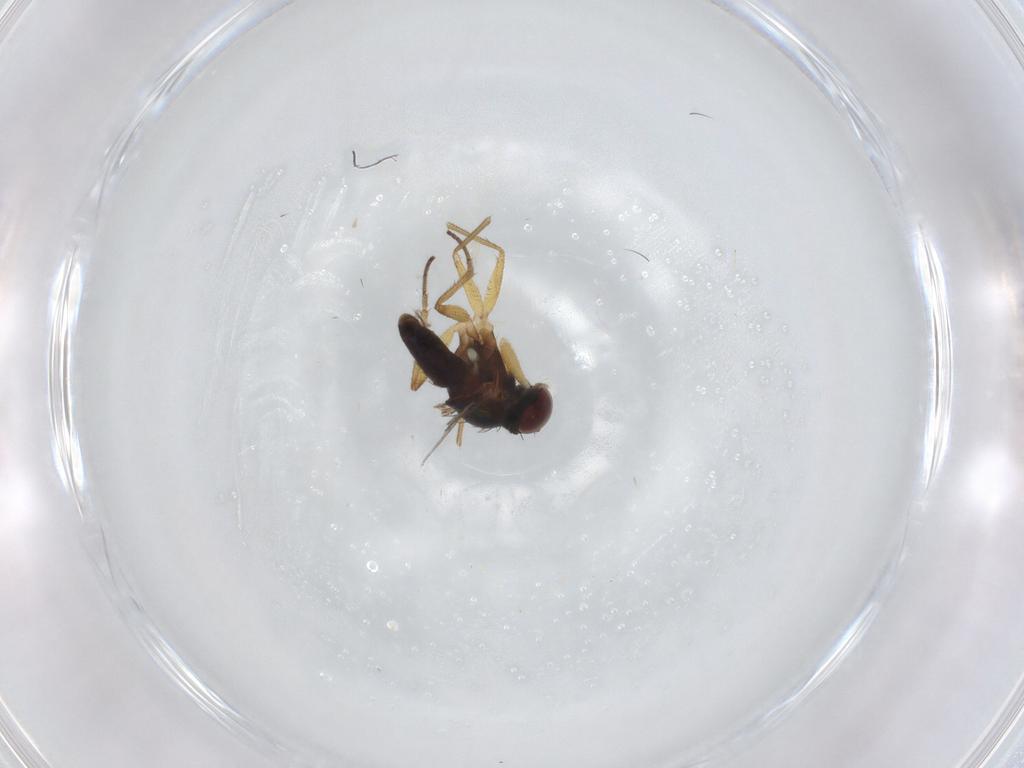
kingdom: Animalia
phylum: Arthropoda
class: Insecta
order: Diptera
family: Dolichopodidae
